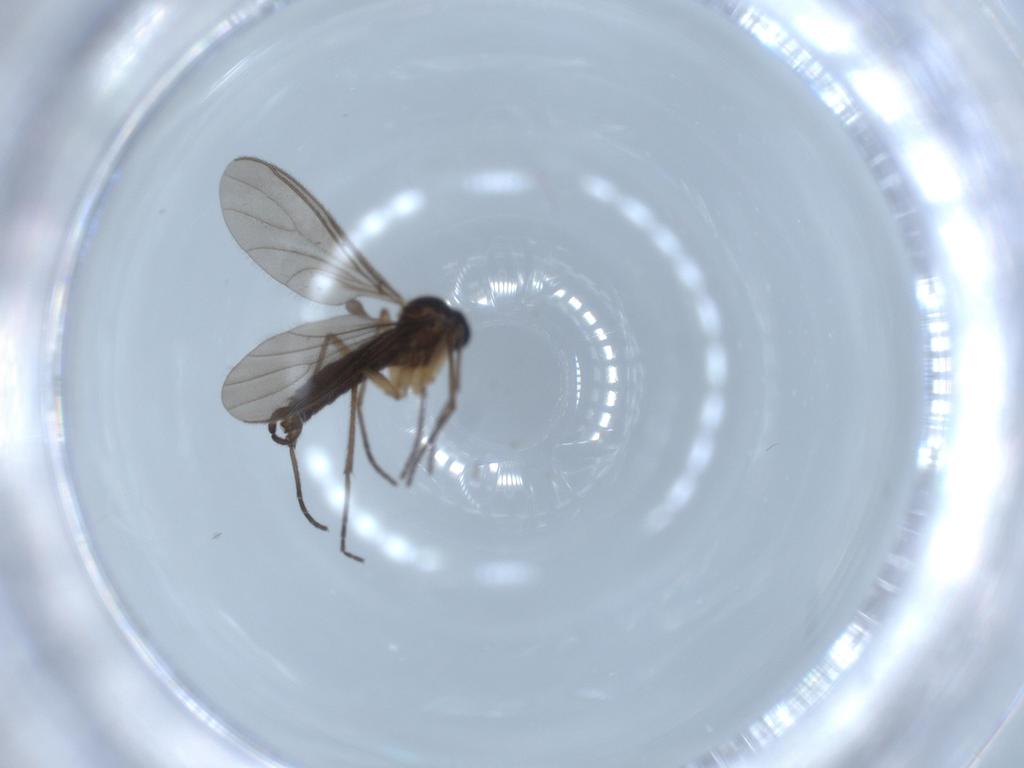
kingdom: Animalia
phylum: Arthropoda
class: Insecta
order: Diptera
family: Sciaridae
